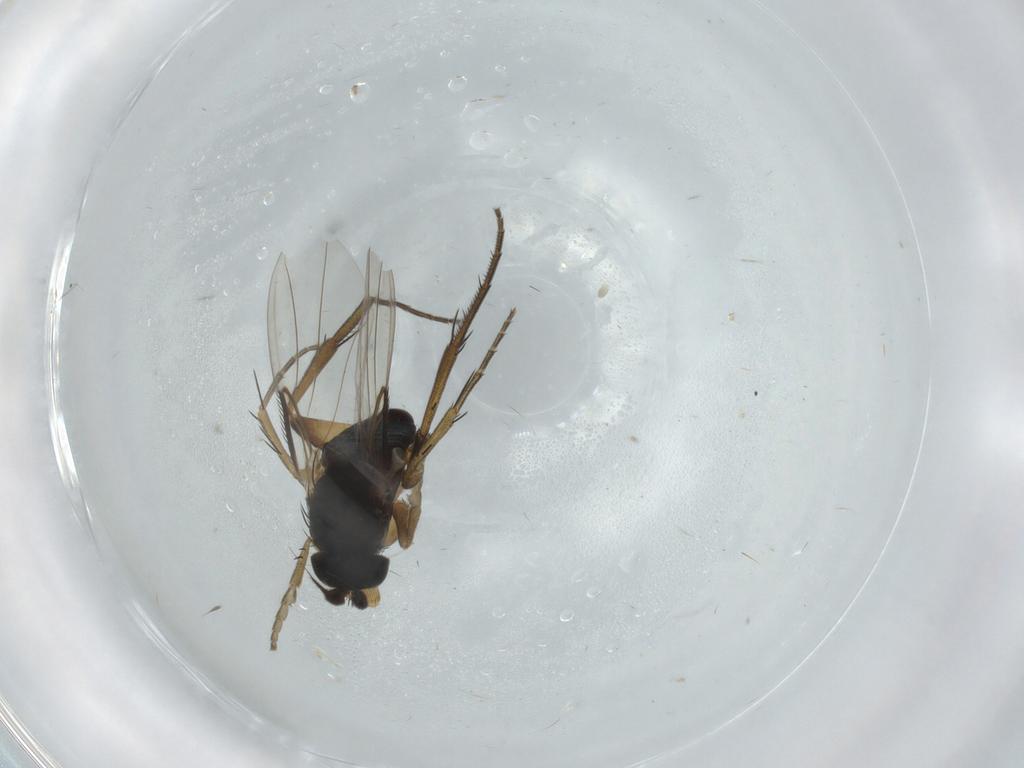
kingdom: Animalia
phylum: Arthropoda
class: Insecta
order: Diptera
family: Phoridae
